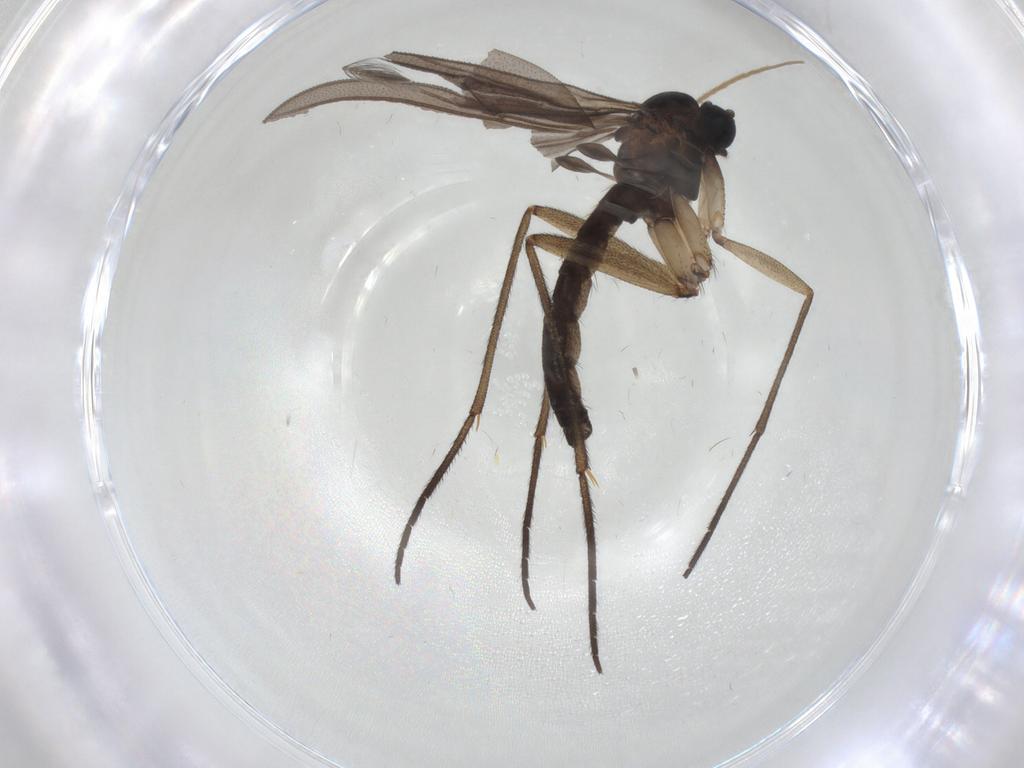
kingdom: Animalia
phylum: Arthropoda
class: Insecta
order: Diptera
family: Sciaridae
